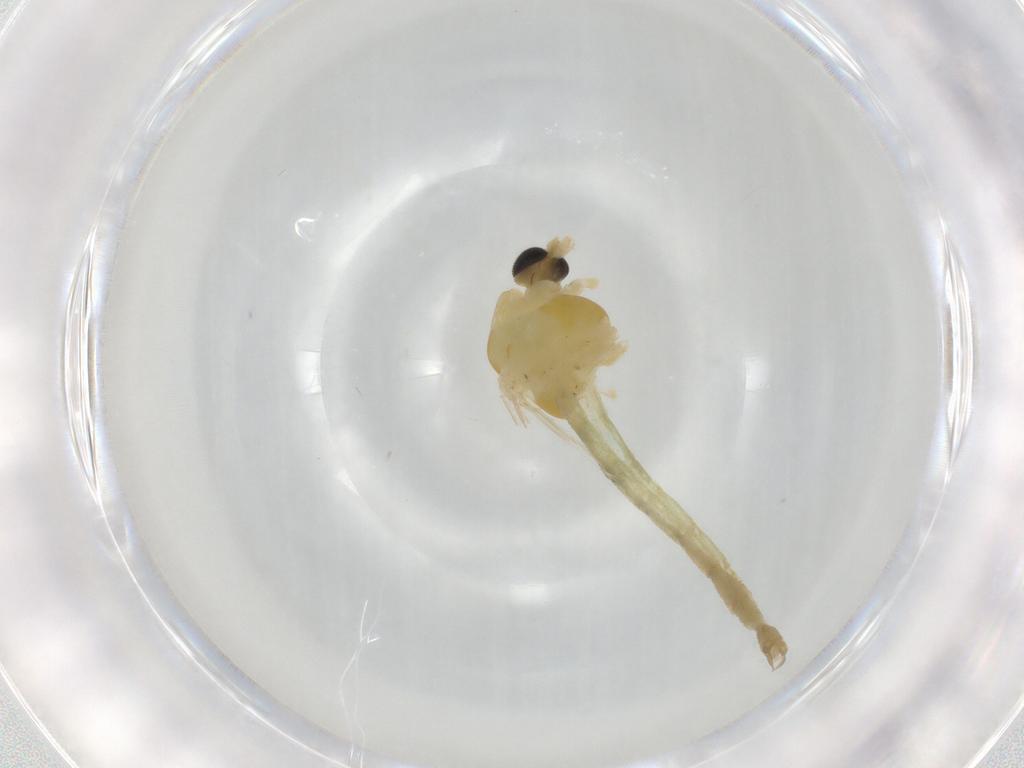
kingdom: Animalia
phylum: Arthropoda
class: Insecta
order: Diptera
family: Chironomidae
